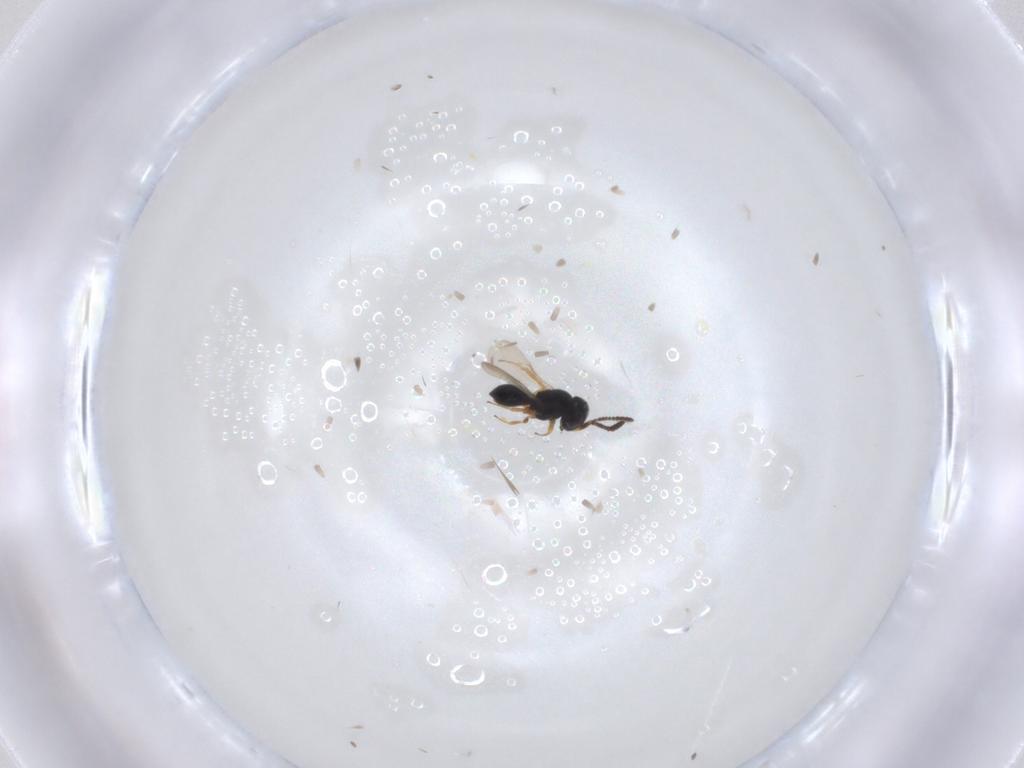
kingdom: Animalia
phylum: Arthropoda
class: Insecta
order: Hymenoptera
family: Scelionidae
